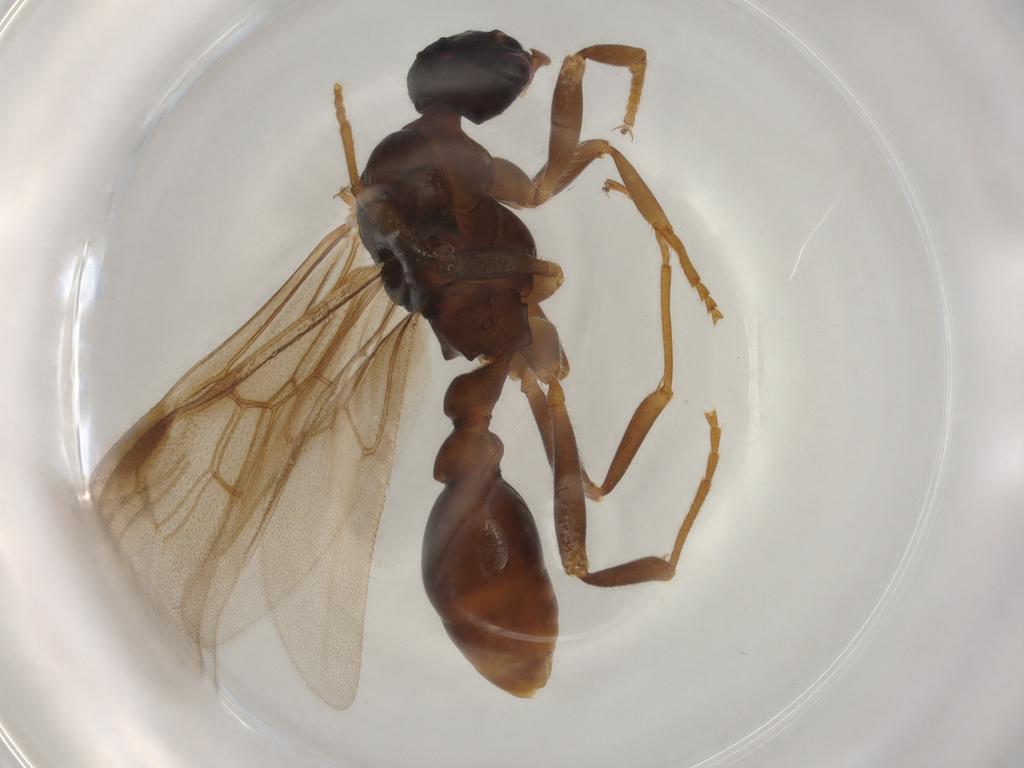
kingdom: Animalia
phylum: Arthropoda
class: Insecta
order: Hymenoptera
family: Formicidae
